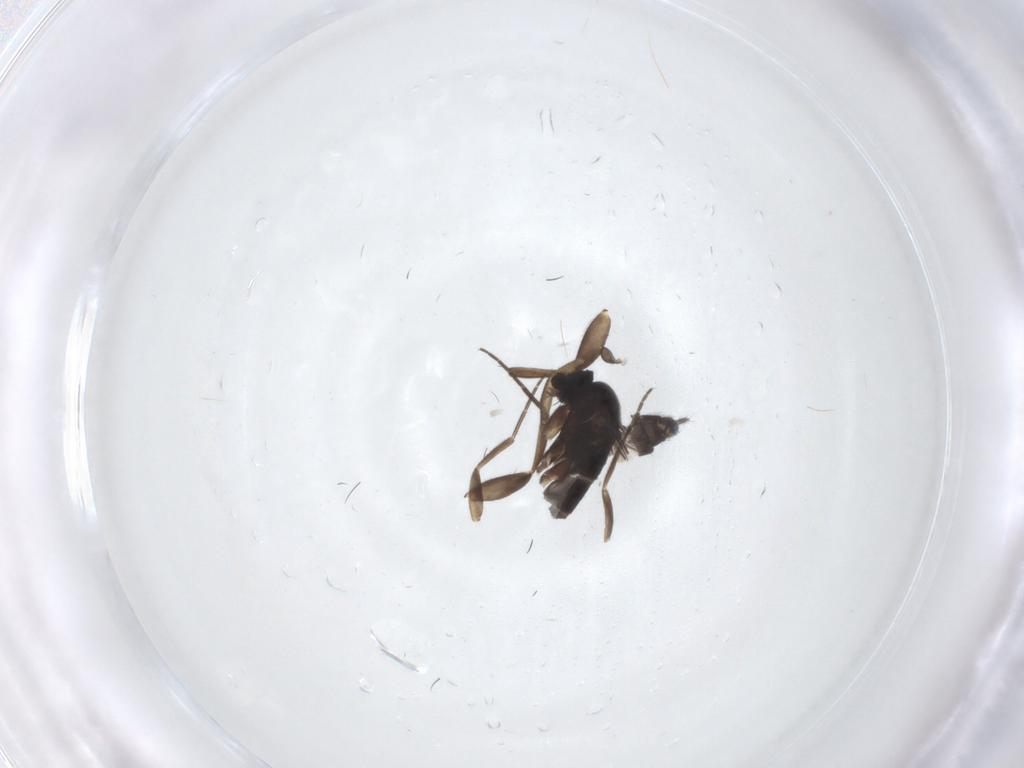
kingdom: Animalia
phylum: Arthropoda
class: Insecta
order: Diptera
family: Phoridae
